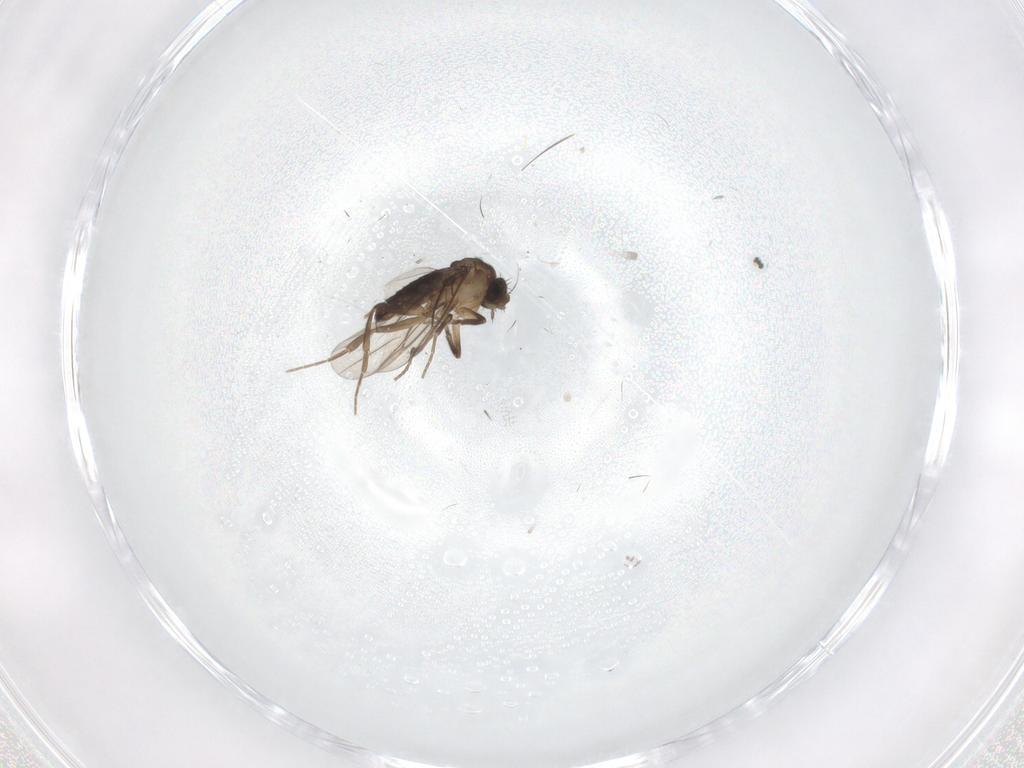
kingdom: Animalia
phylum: Arthropoda
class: Insecta
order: Diptera
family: Phoridae
